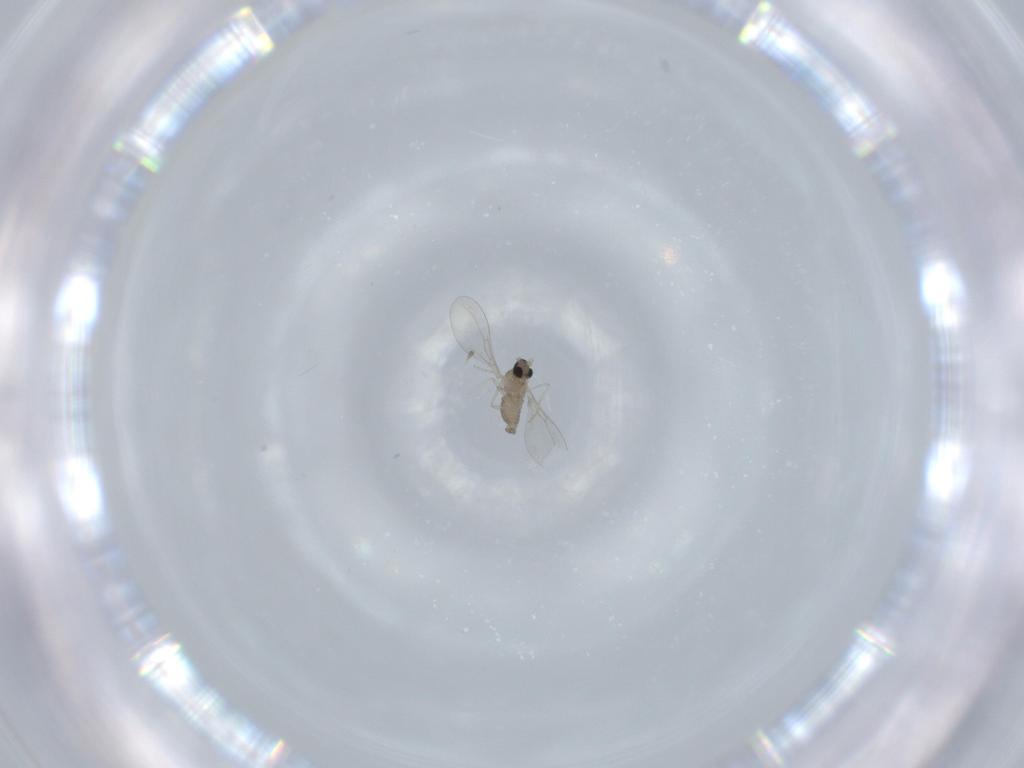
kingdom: Animalia
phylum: Arthropoda
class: Insecta
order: Diptera
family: Cecidomyiidae
